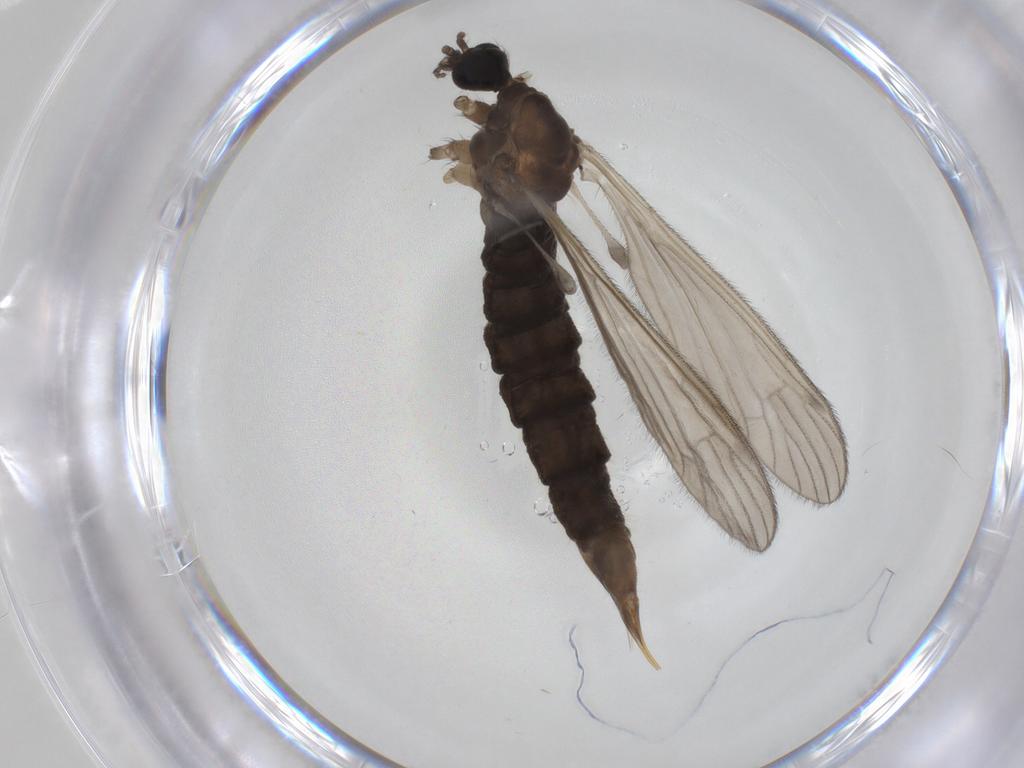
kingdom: Animalia
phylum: Arthropoda
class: Insecta
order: Diptera
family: Limoniidae
